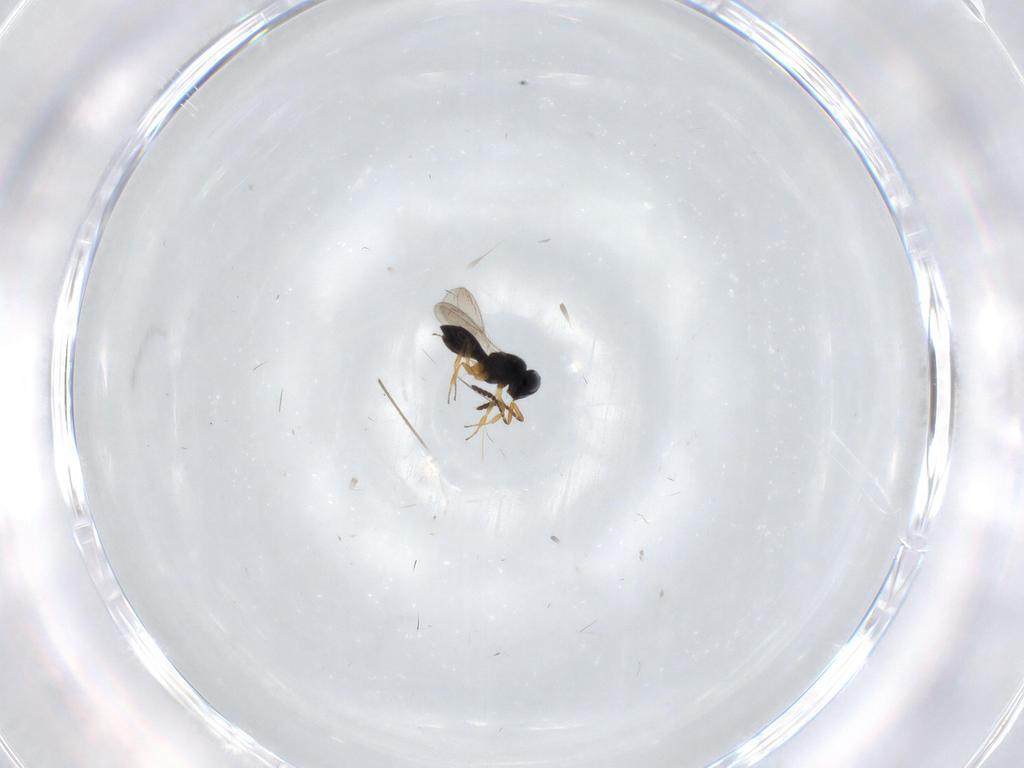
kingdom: Animalia
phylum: Arthropoda
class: Insecta
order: Hymenoptera
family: Scelionidae
